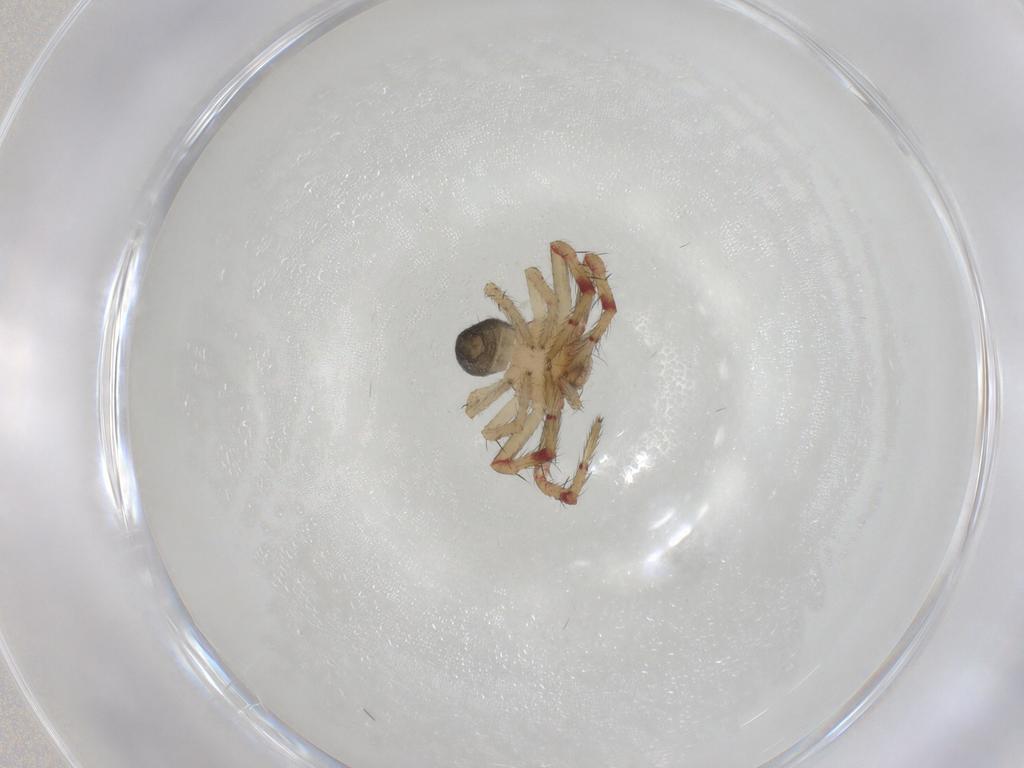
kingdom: Animalia
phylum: Arthropoda
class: Arachnida
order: Araneae
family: Thomisidae
